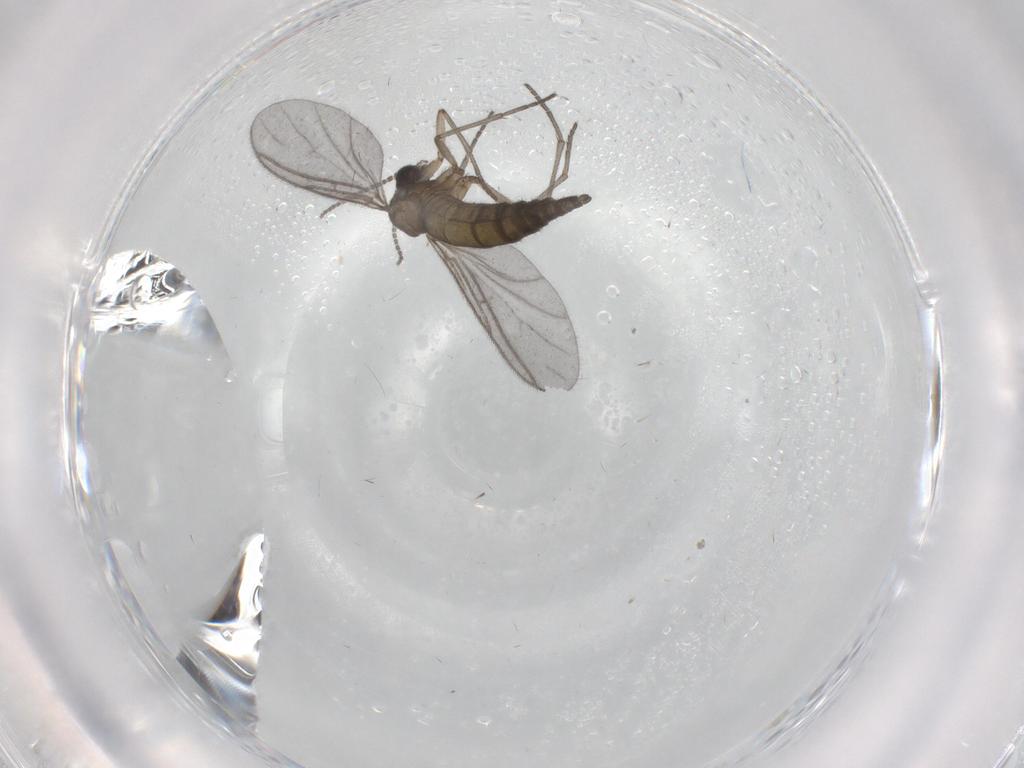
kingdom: Animalia
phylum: Arthropoda
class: Insecta
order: Diptera
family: Sciaridae
